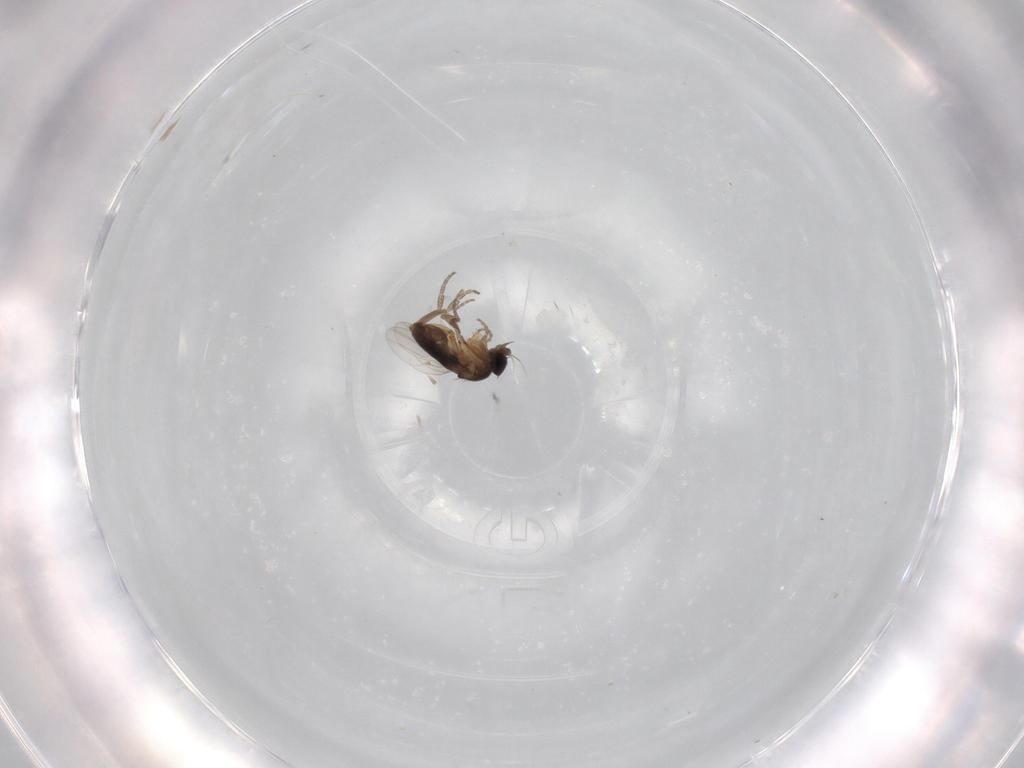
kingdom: Animalia
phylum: Arthropoda
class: Insecta
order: Diptera
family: Phoridae
